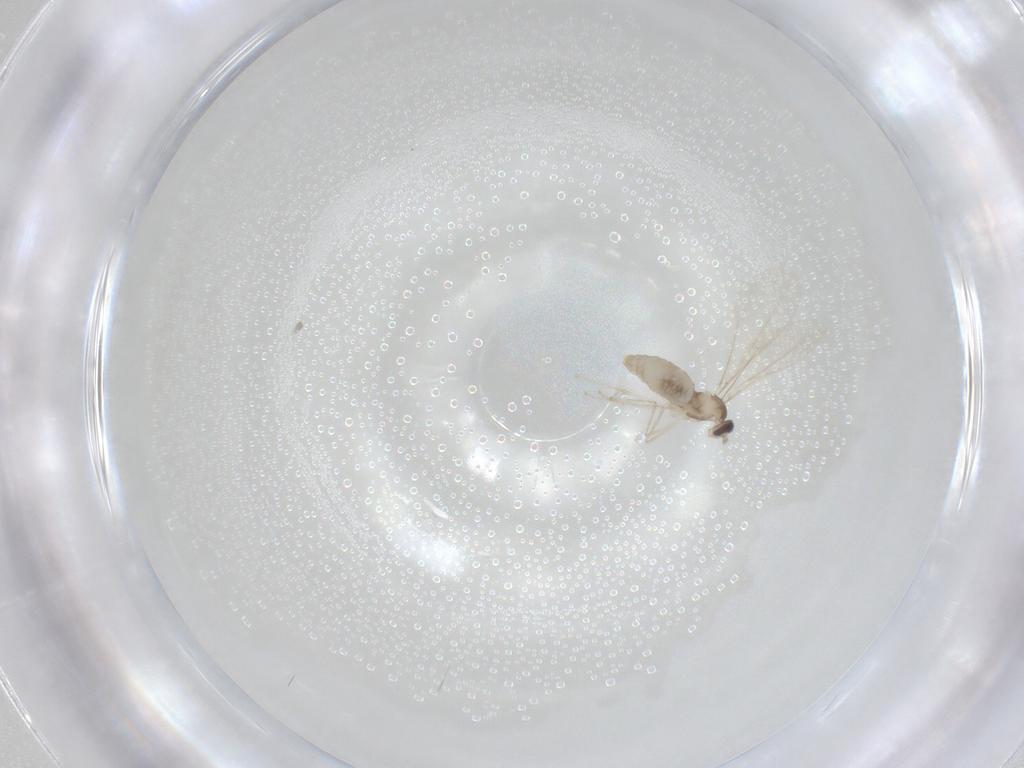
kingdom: Animalia
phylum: Arthropoda
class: Insecta
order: Diptera
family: Cecidomyiidae
